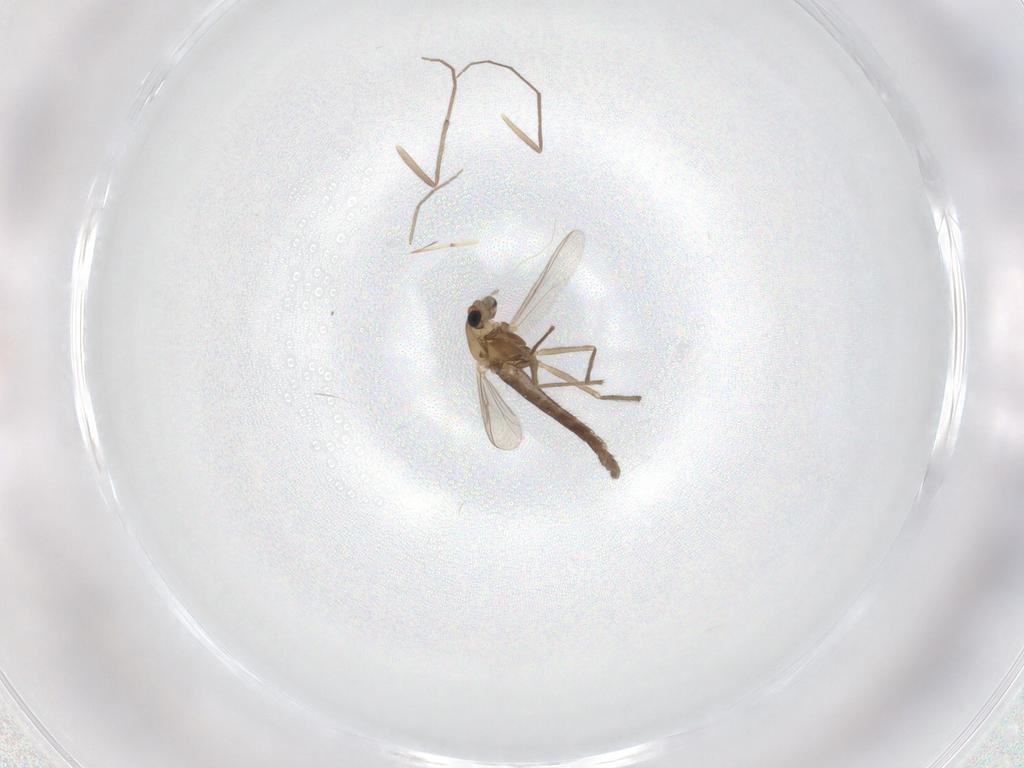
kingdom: Animalia
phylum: Arthropoda
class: Insecta
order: Diptera
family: Chironomidae
